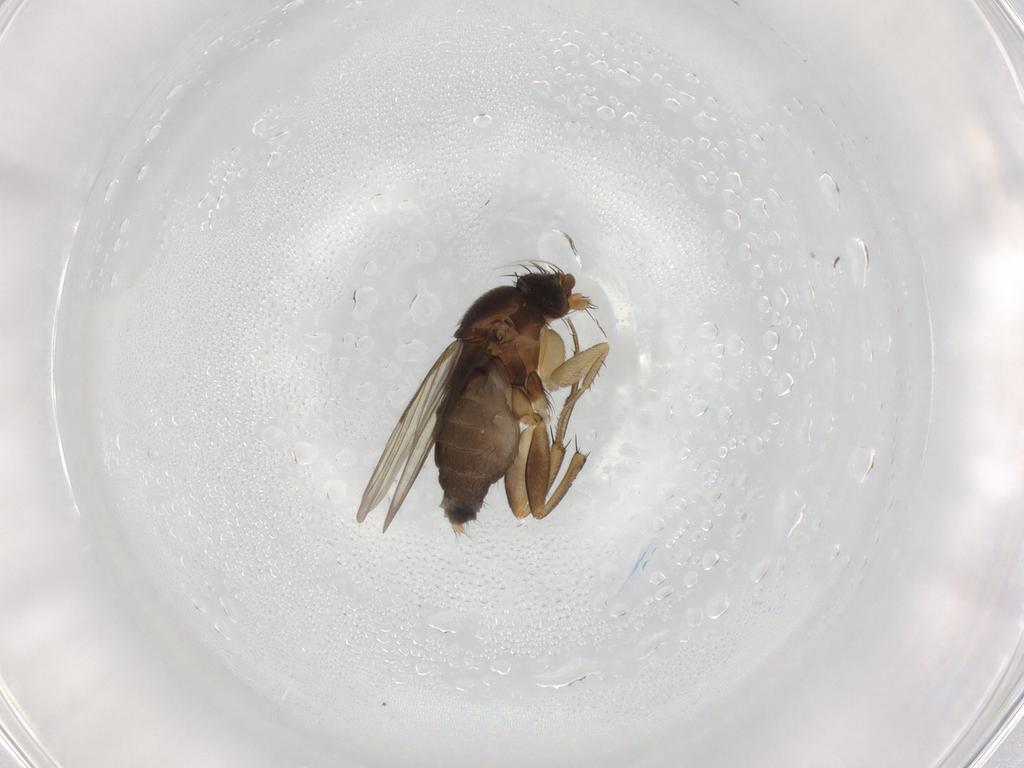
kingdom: Animalia
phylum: Arthropoda
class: Insecta
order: Diptera
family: Phoridae
